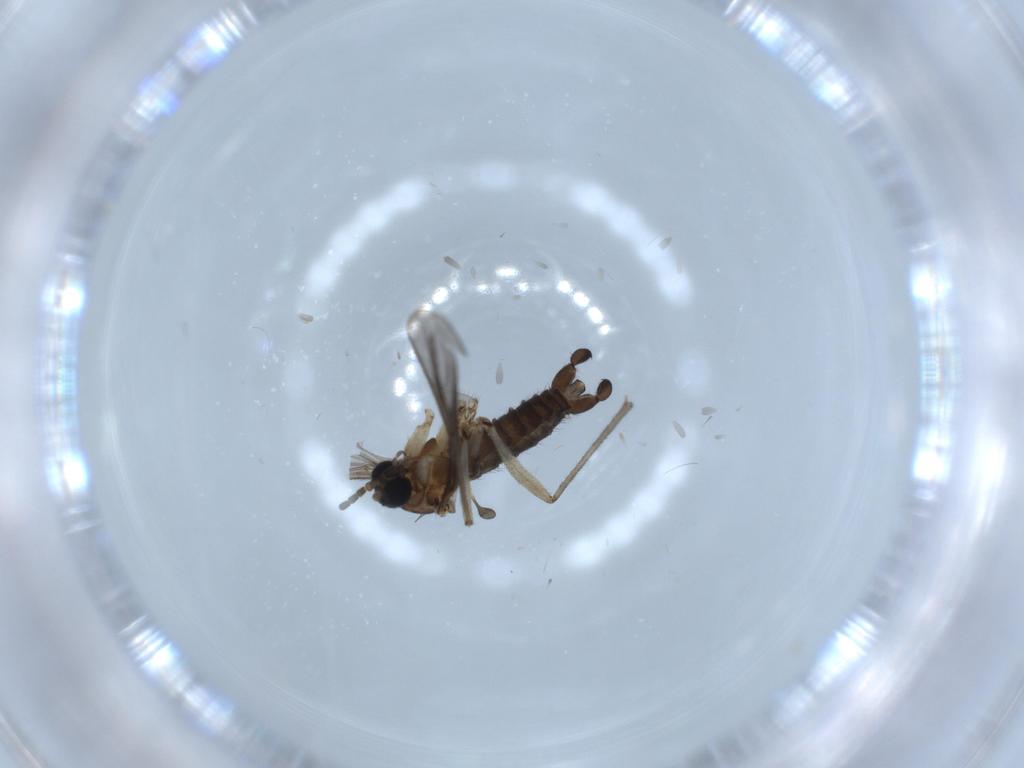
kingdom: Animalia
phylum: Arthropoda
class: Insecta
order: Diptera
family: Sciaridae
